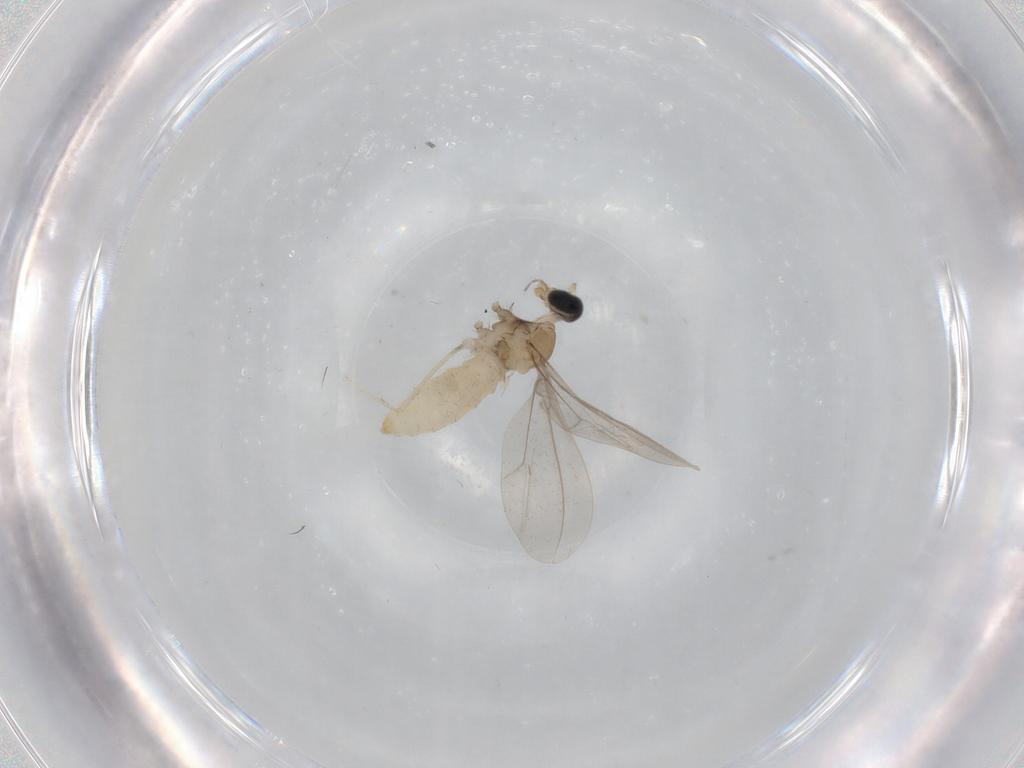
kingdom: Animalia
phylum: Arthropoda
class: Insecta
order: Diptera
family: Cecidomyiidae
